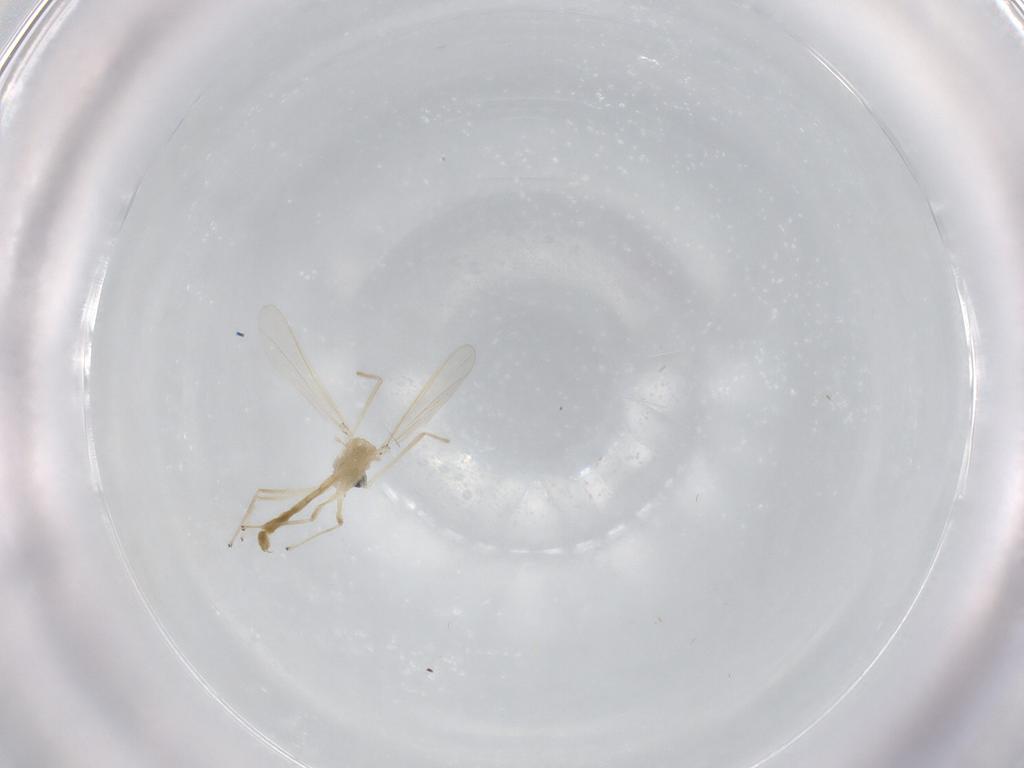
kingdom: Animalia
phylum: Arthropoda
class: Insecta
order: Diptera
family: Chironomidae
